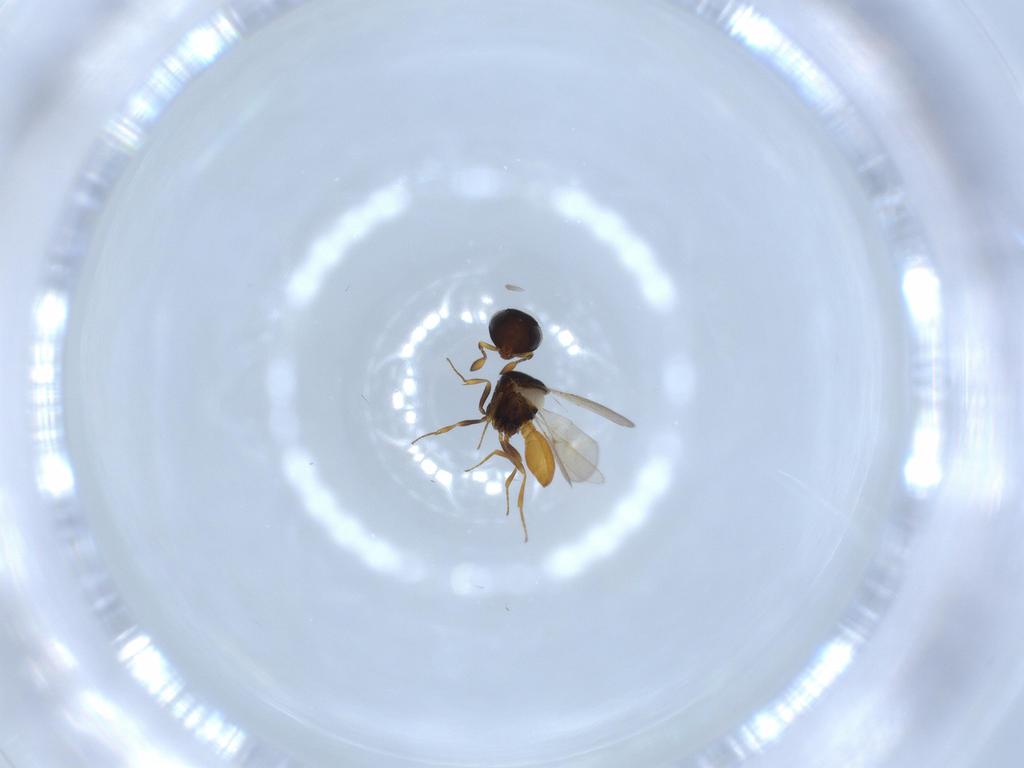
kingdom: Animalia
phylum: Arthropoda
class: Insecta
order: Hymenoptera
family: Scelionidae
